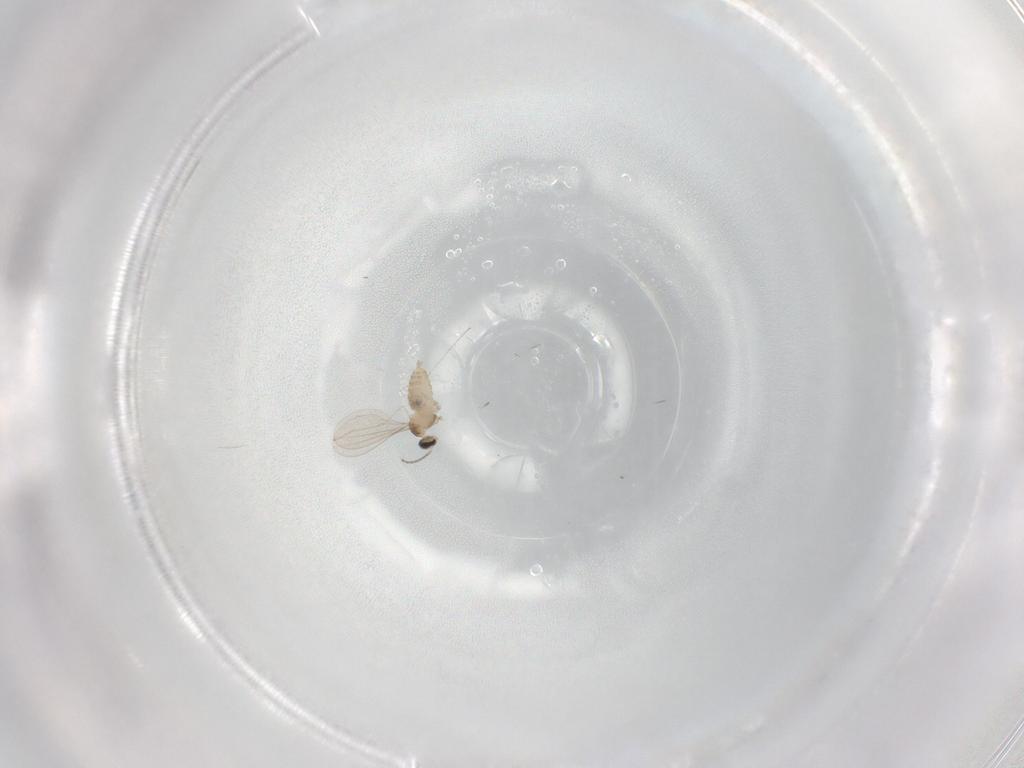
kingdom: Animalia
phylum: Arthropoda
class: Insecta
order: Diptera
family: Cecidomyiidae
